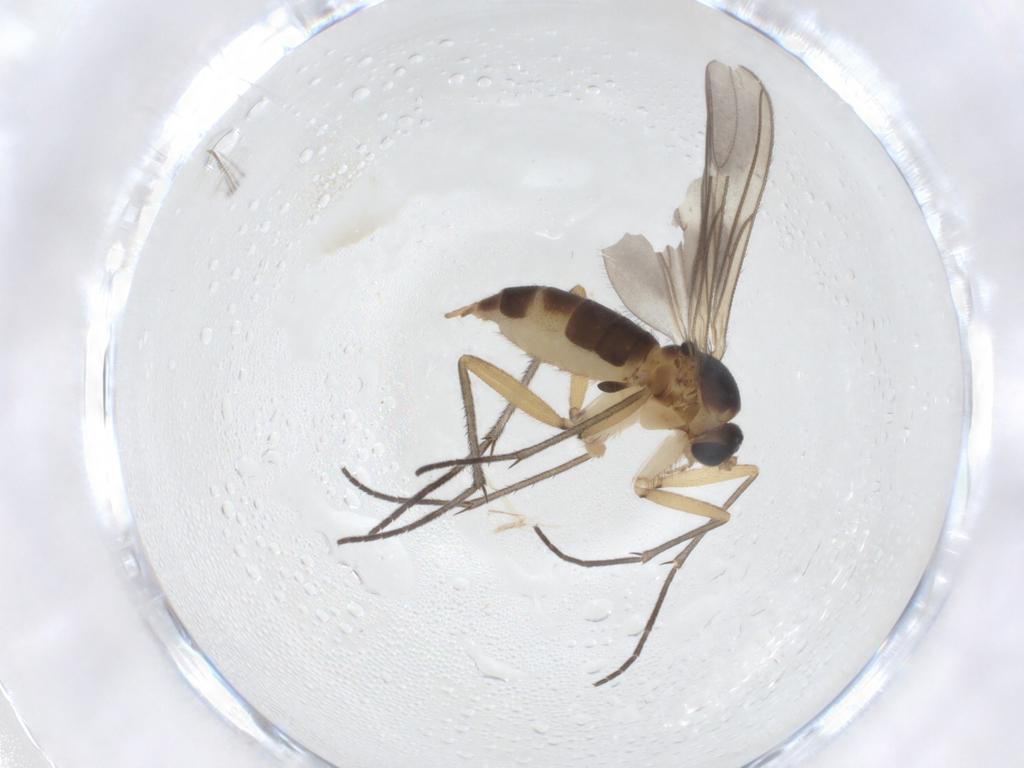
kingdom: Animalia
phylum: Arthropoda
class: Insecta
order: Diptera
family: Sciaridae
